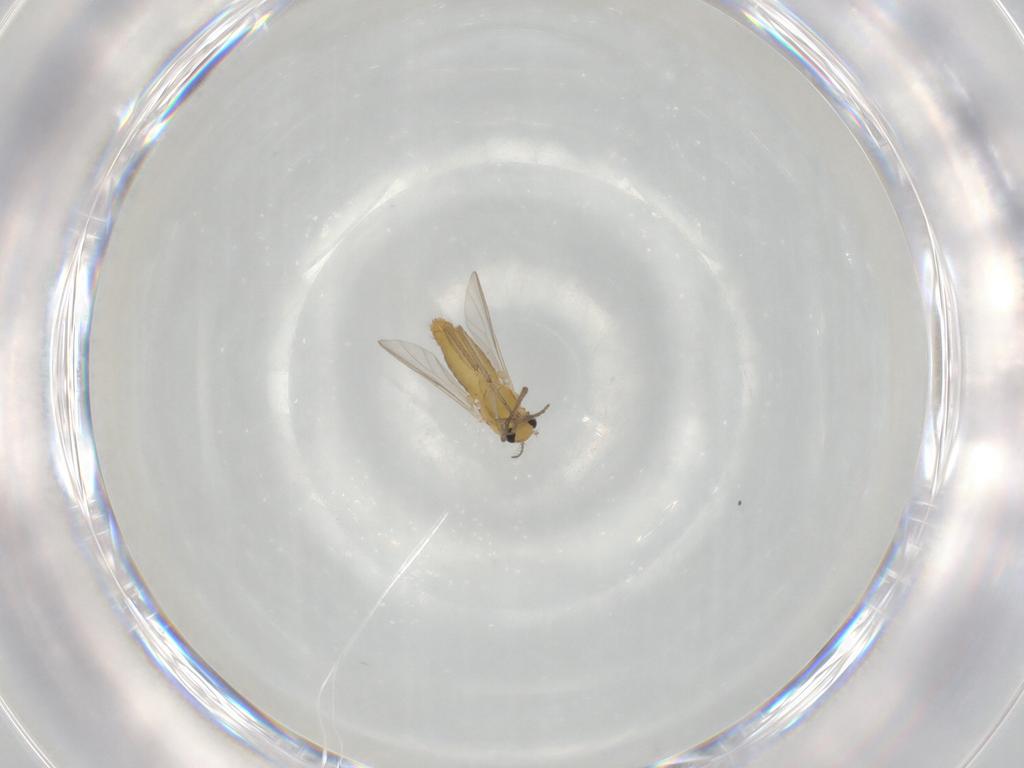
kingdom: Animalia
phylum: Arthropoda
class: Insecta
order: Diptera
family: Chironomidae
